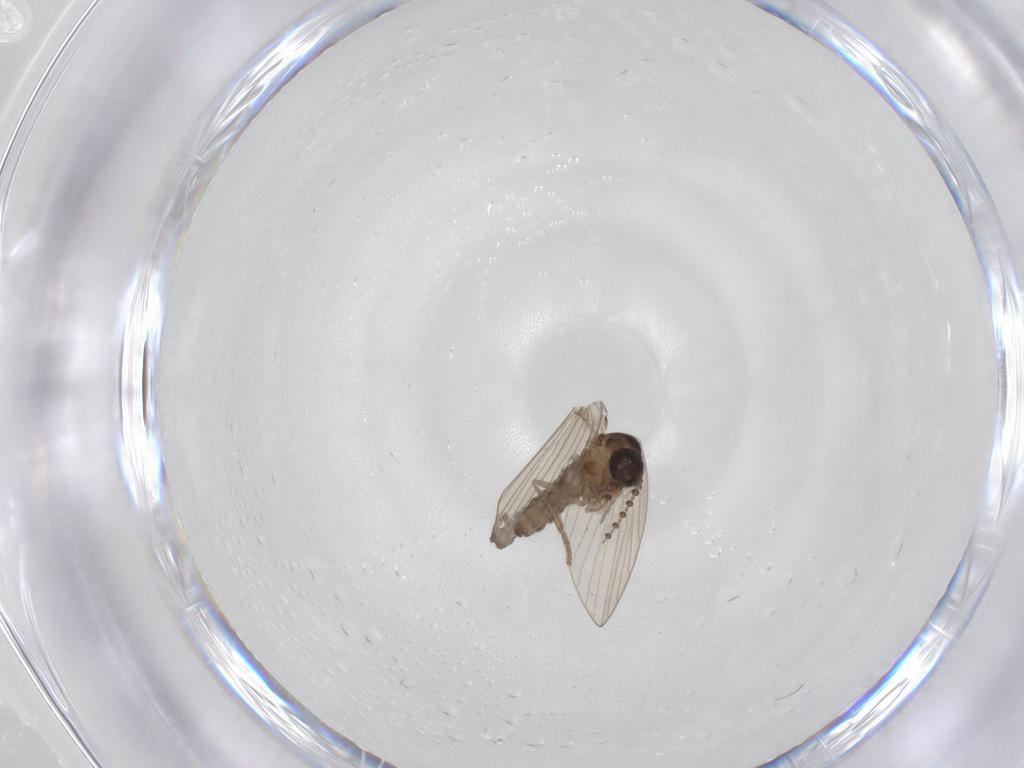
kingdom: Animalia
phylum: Arthropoda
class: Insecta
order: Diptera
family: Cecidomyiidae
